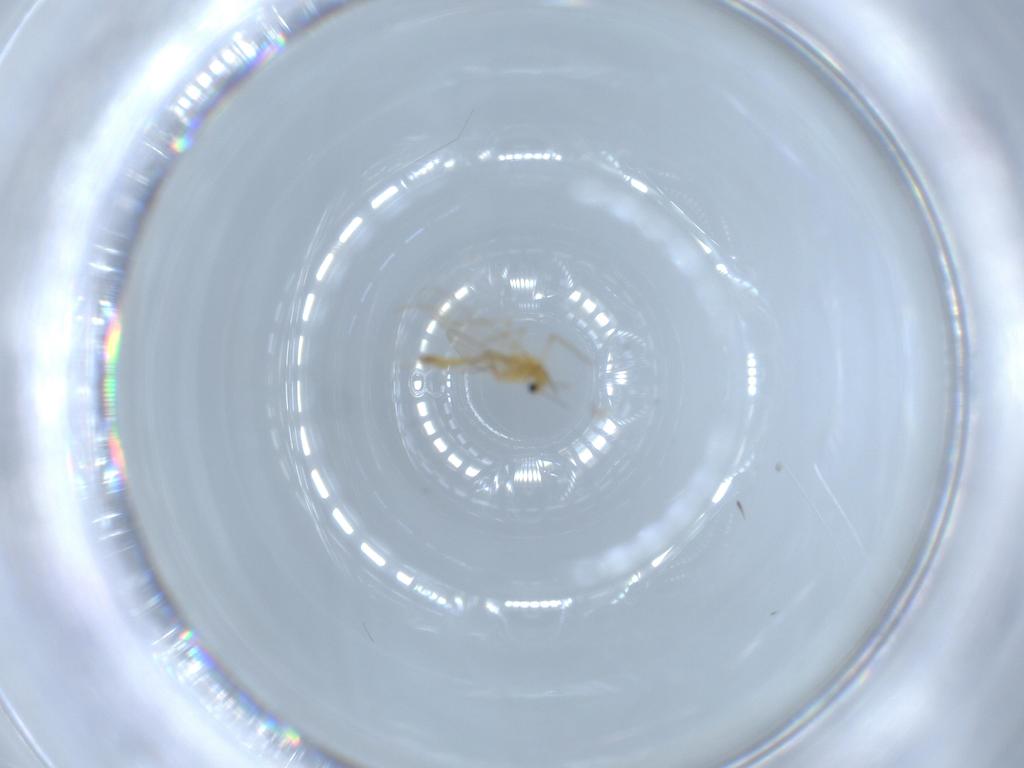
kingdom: Animalia
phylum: Arthropoda
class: Insecta
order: Diptera
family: Chironomidae
